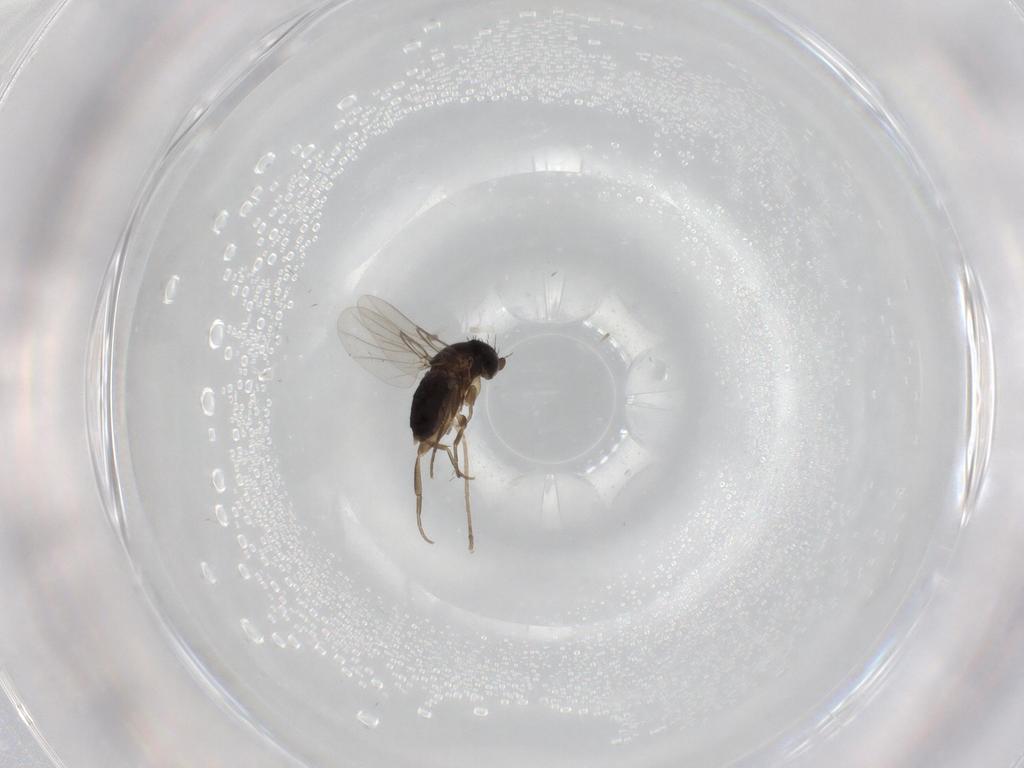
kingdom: Animalia
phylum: Arthropoda
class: Insecta
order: Diptera
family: Phoridae
